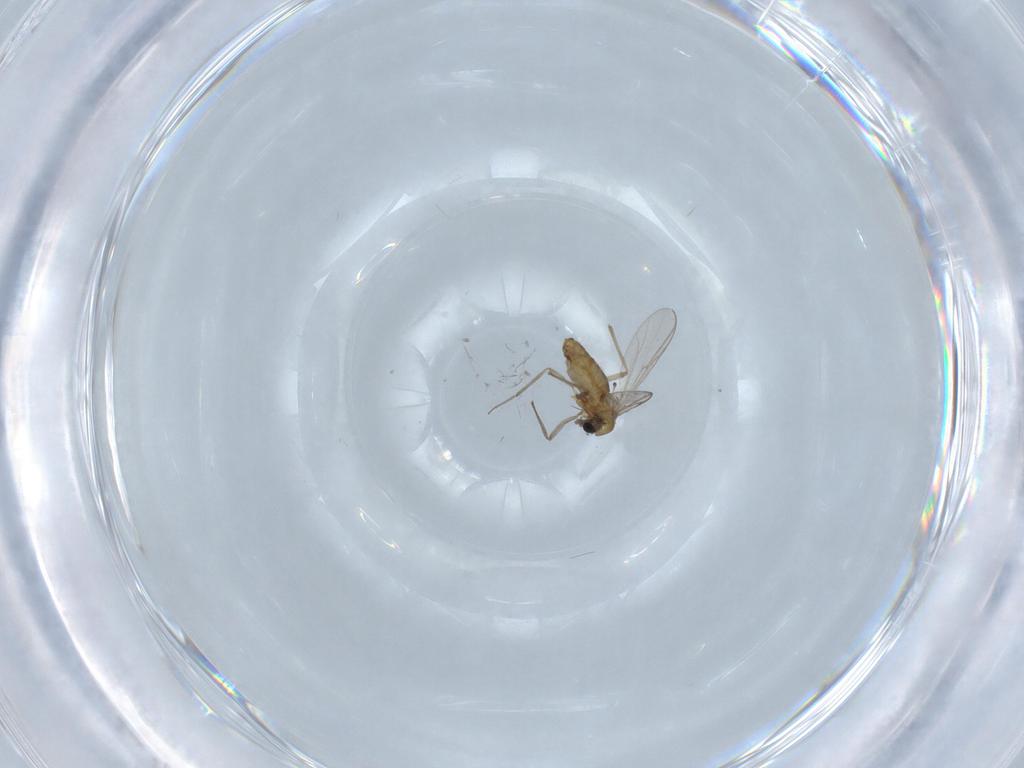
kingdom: Animalia
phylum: Arthropoda
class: Insecta
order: Diptera
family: Chironomidae
